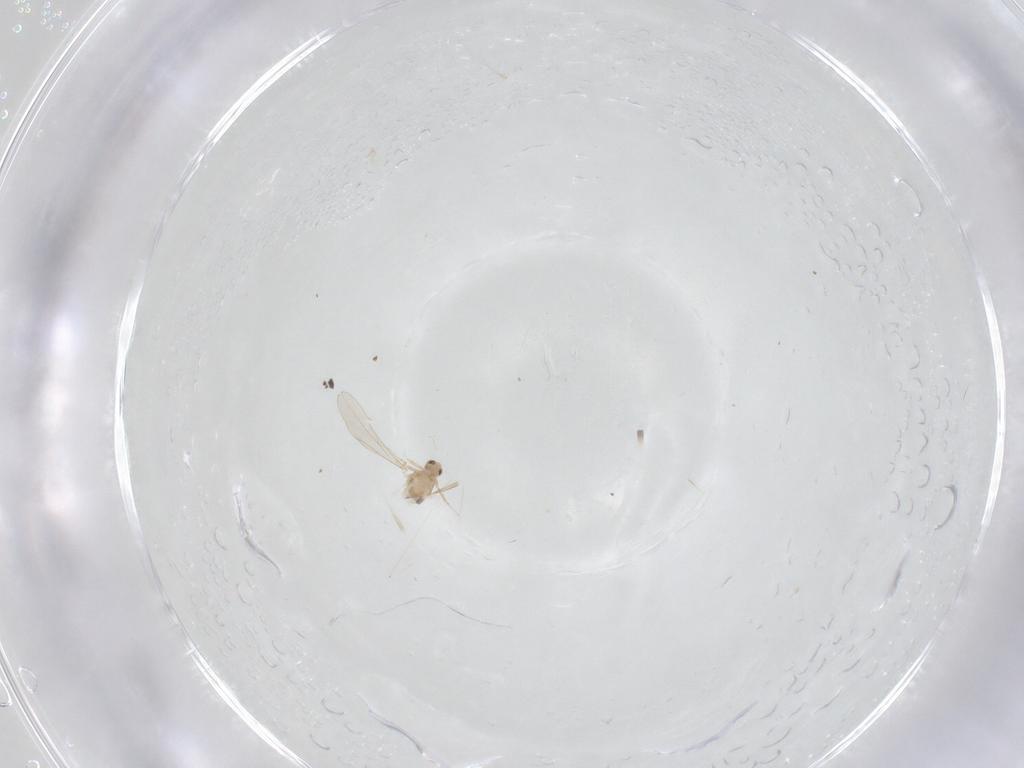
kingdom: Animalia
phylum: Arthropoda
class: Insecta
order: Diptera
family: Cecidomyiidae
